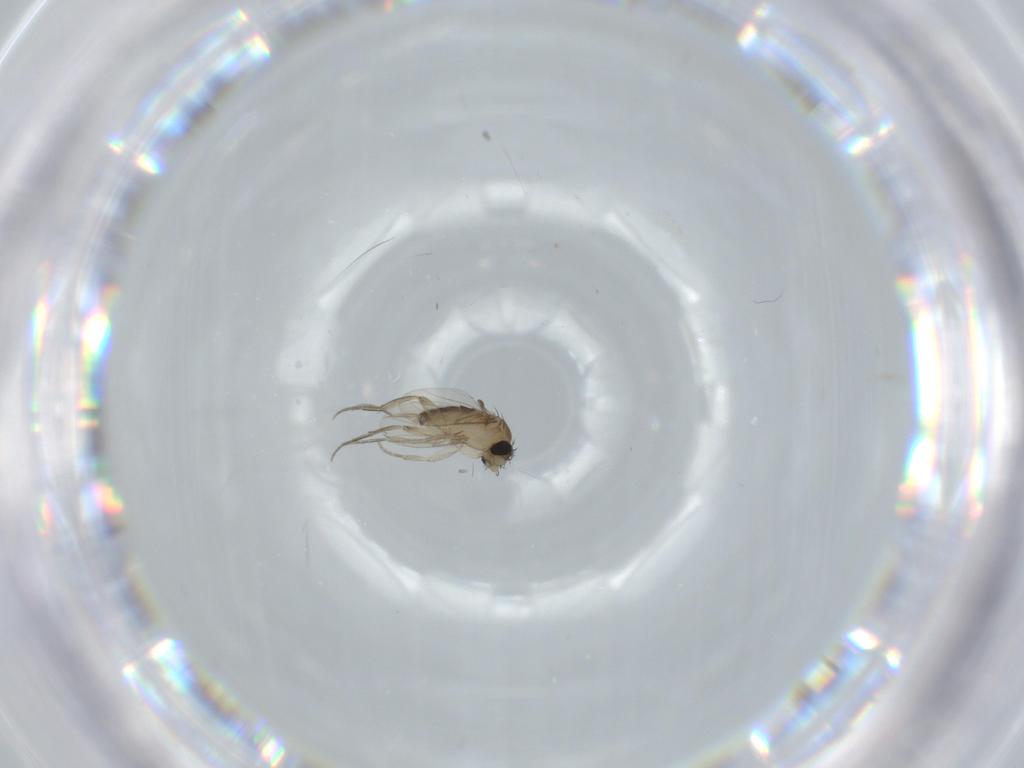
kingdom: Animalia
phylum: Arthropoda
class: Insecta
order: Diptera
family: Phoridae
